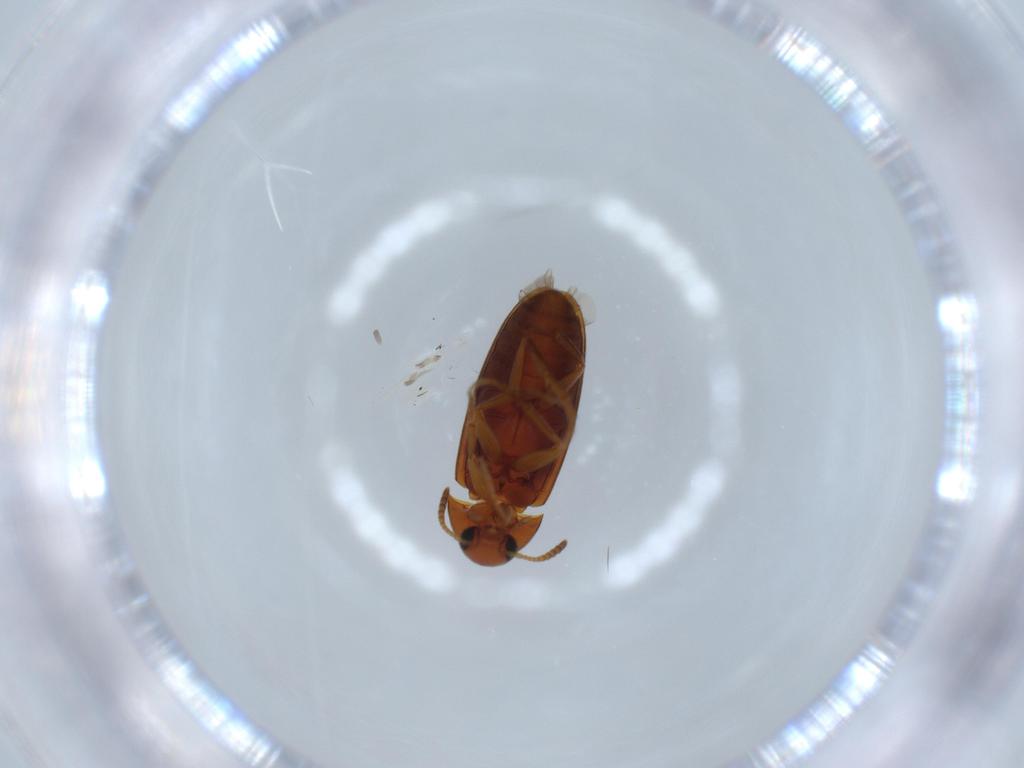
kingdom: Animalia
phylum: Arthropoda
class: Insecta
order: Coleoptera
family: Scraptiidae
